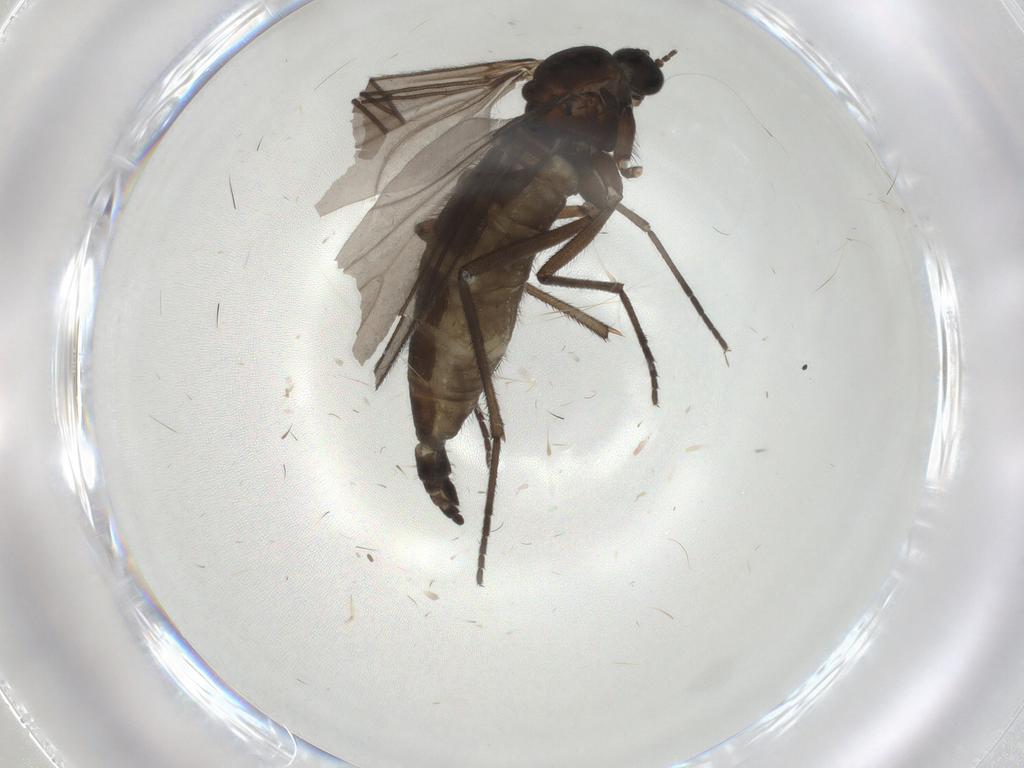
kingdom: Animalia
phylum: Arthropoda
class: Insecta
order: Diptera
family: Sciaridae
